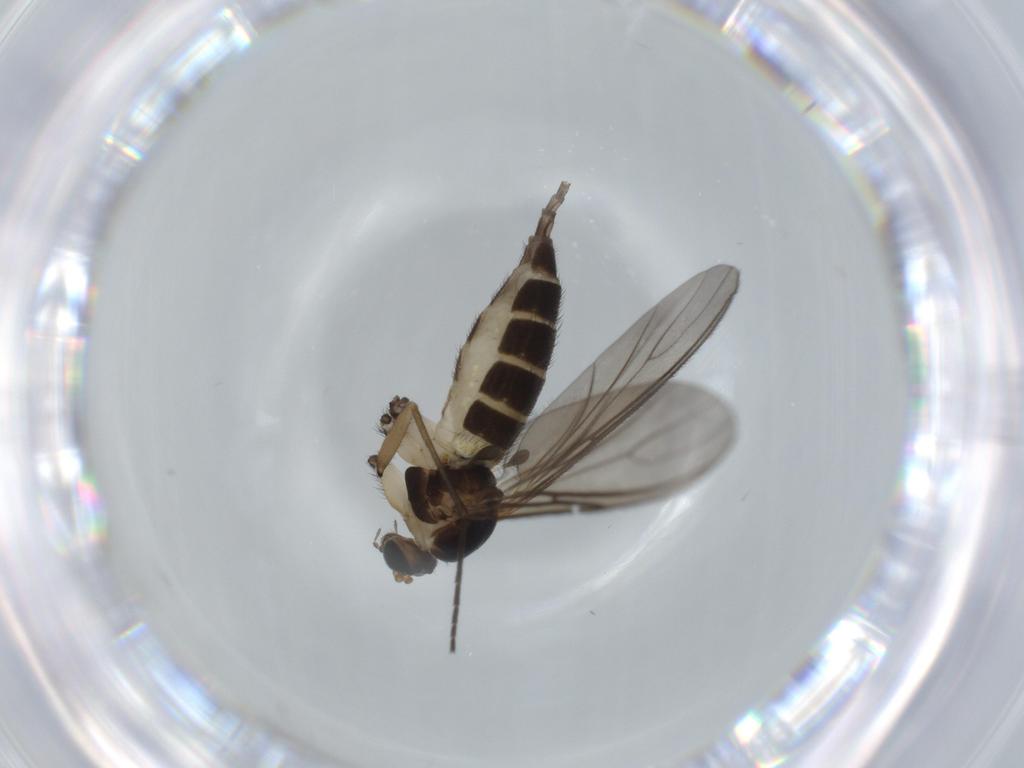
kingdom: Animalia
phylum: Arthropoda
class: Insecta
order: Diptera
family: Sciaridae
